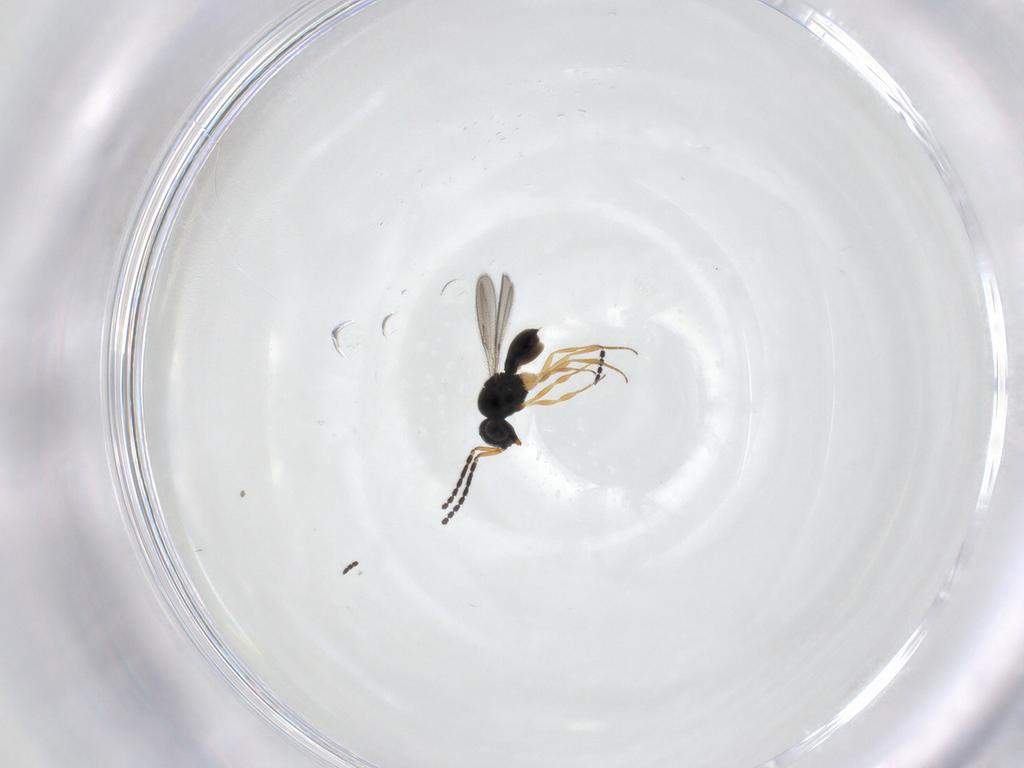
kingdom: Animalia
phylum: Arthropoda
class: Insecta
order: Hymenoptera
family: Scelionidae
